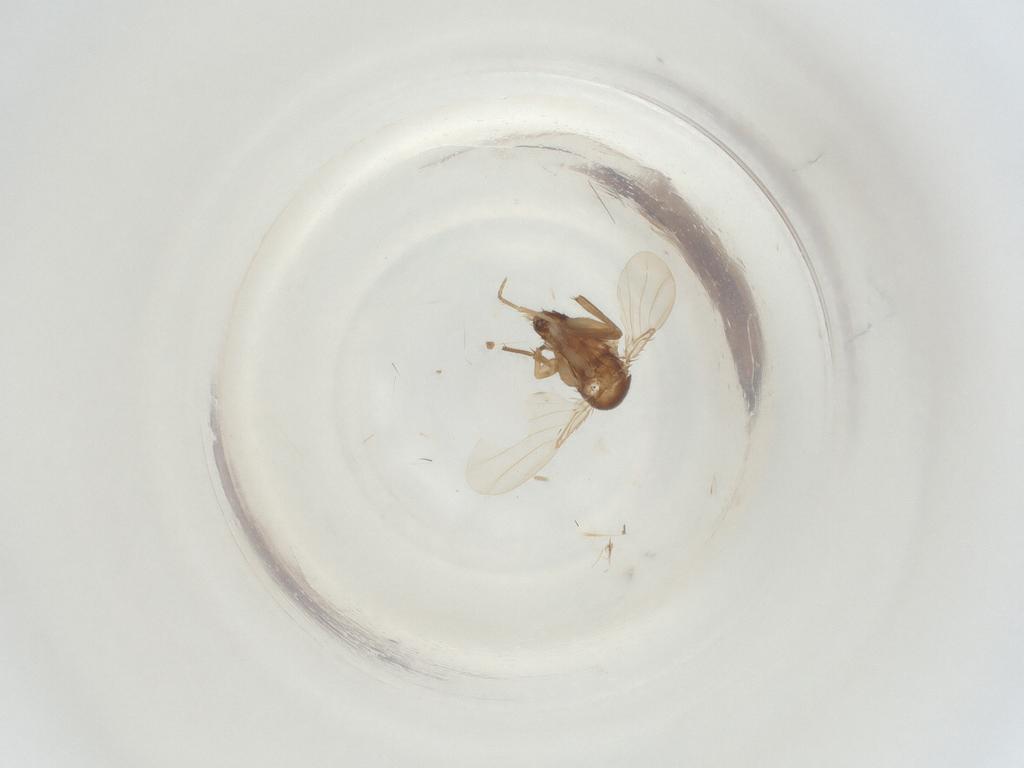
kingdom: Animalia
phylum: Arthropoda
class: Insecta
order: Diptera
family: Phoridae
